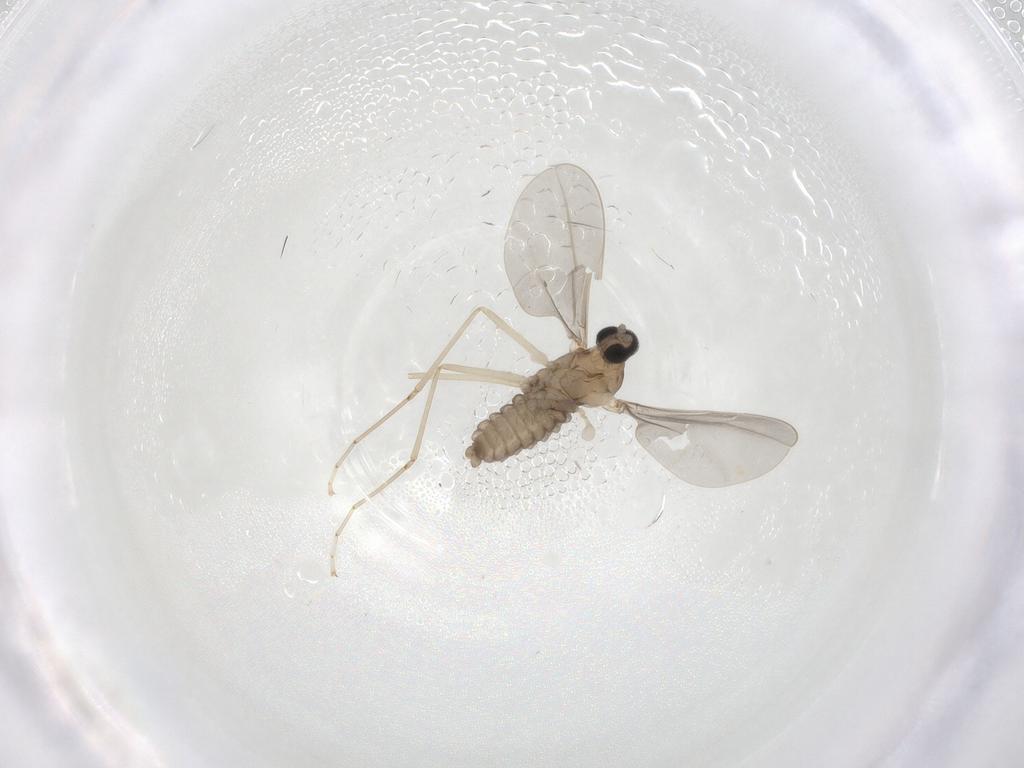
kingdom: Animalia
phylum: Arthropoda
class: Insecta
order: Diptera
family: Cecidomyiidae
